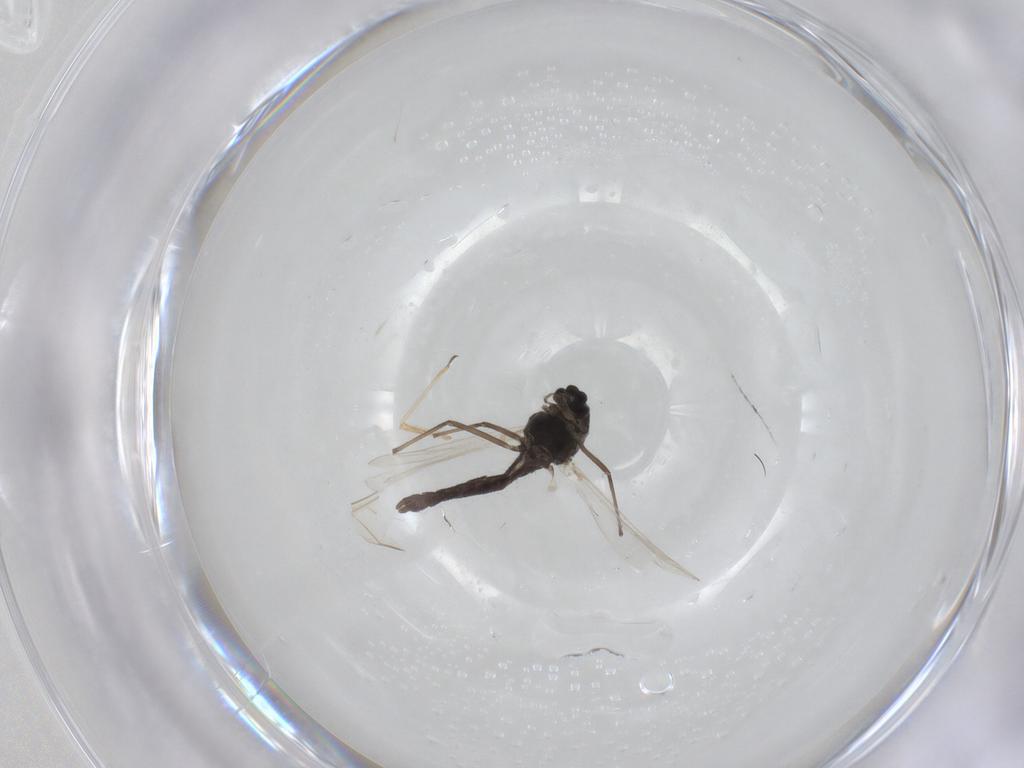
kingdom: Animalia
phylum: Arthropoda
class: Insecta
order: Diptera
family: Chironomidae
